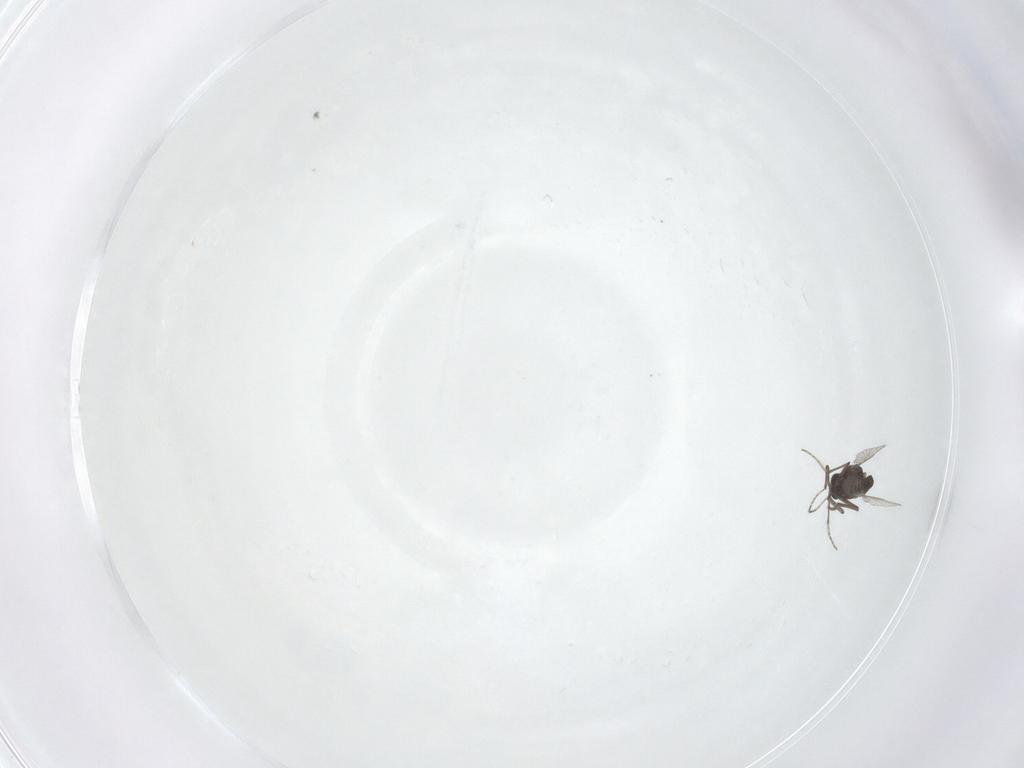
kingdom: Animalia
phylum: Arthropoda
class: Insecta
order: Diptera
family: Ceratopogonidae
